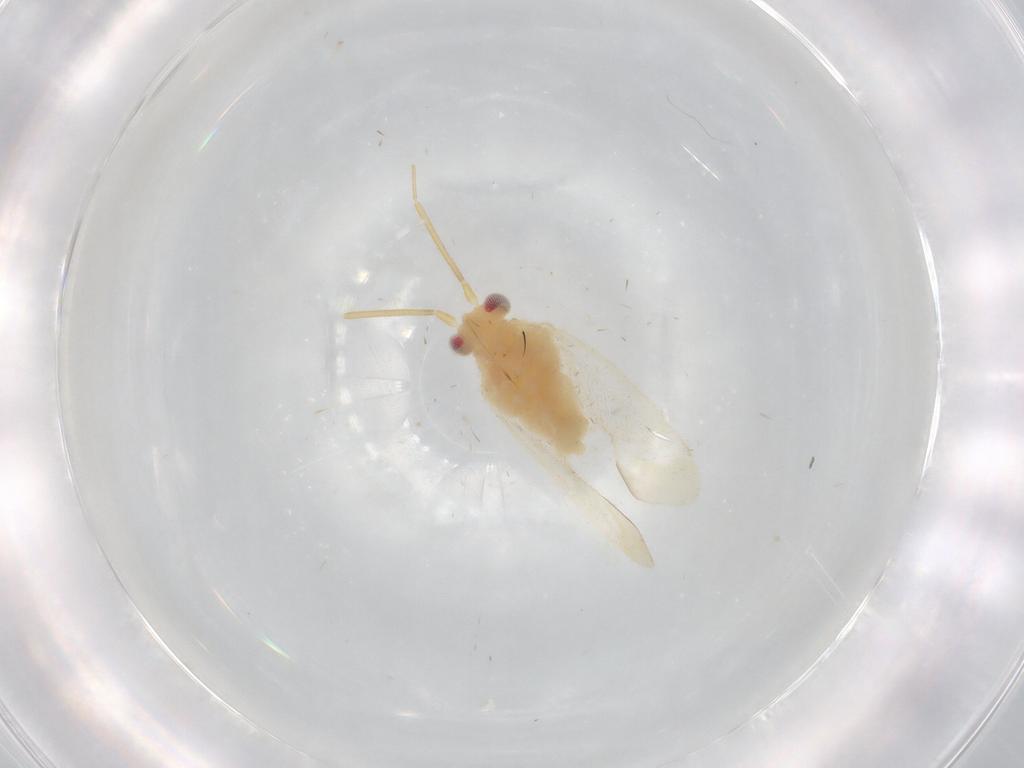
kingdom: Animalia
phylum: Arthropoda
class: Insecta
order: Hemiptera
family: Miridae
